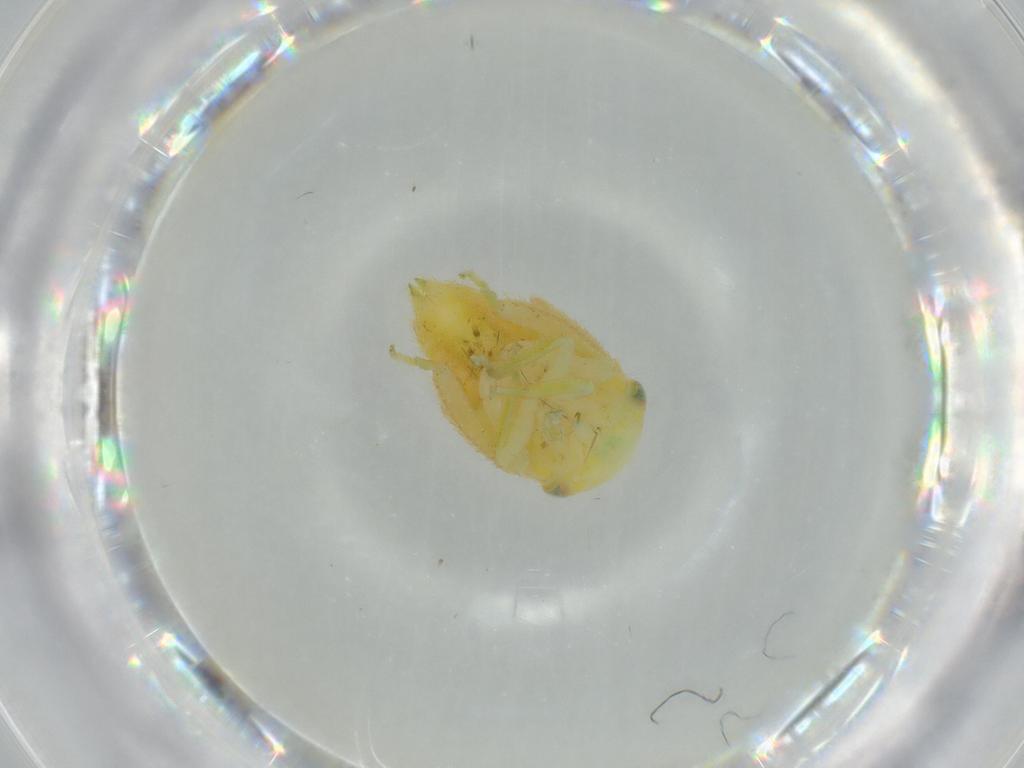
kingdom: Animalia
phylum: Arthropoda
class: Insecta
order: Hemiptera
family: Cicadellidae
